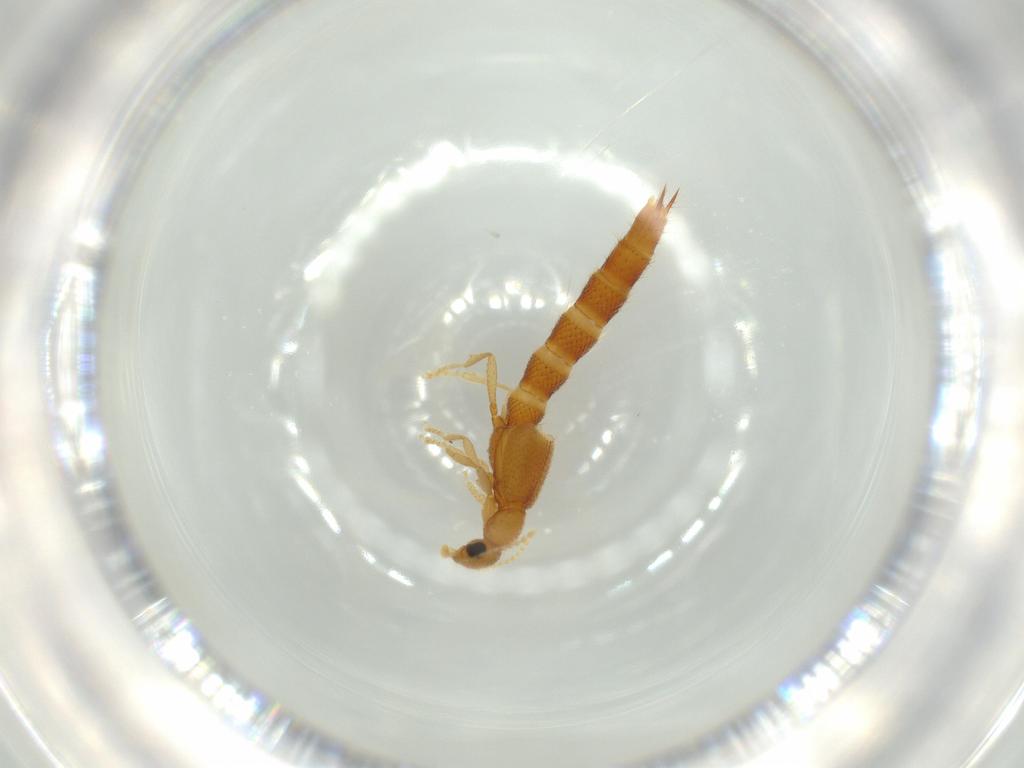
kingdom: Animalia
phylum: Arthropoda
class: Insecta
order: Coleoptera
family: Staphylinidae
